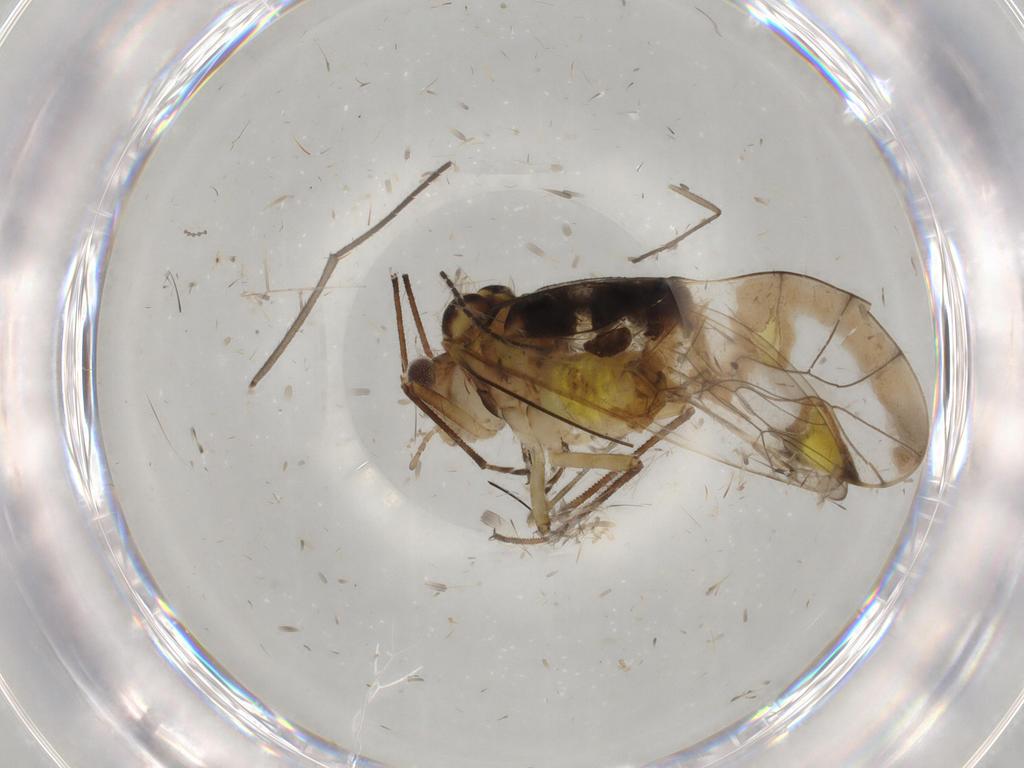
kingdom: Animalia
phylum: Arthropoda
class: Insecta
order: Psocodea
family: Amphipsocidae
